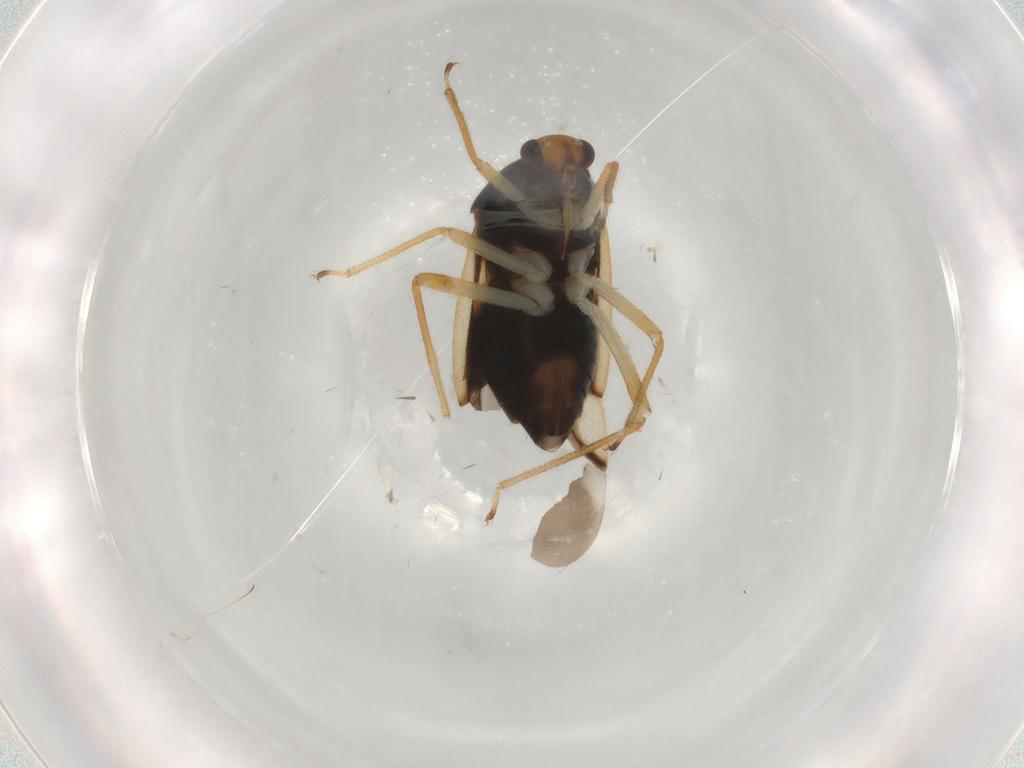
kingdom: Animalia
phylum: Arthropoda
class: Insecta
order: Hemiptera
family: Miridae
